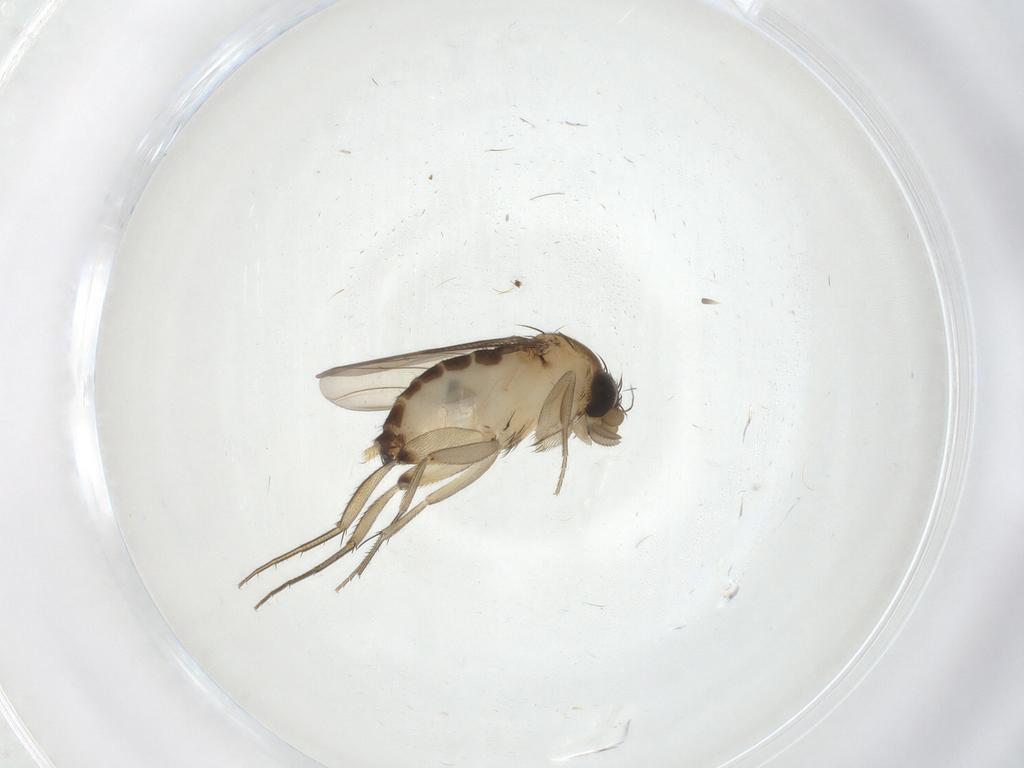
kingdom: Animalia
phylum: Arthropoda
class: Insecta
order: Diptera
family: Phoridae
